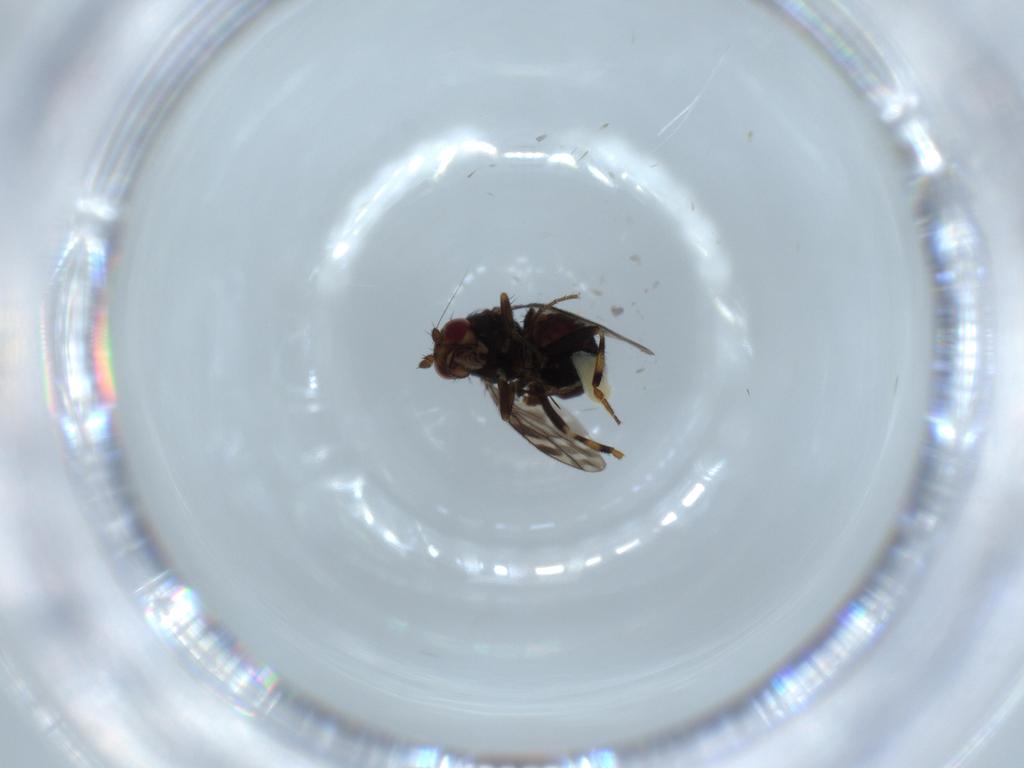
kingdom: Animalia
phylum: Arthropoda
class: Insecta
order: Diptera
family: Sphaeroceridae
